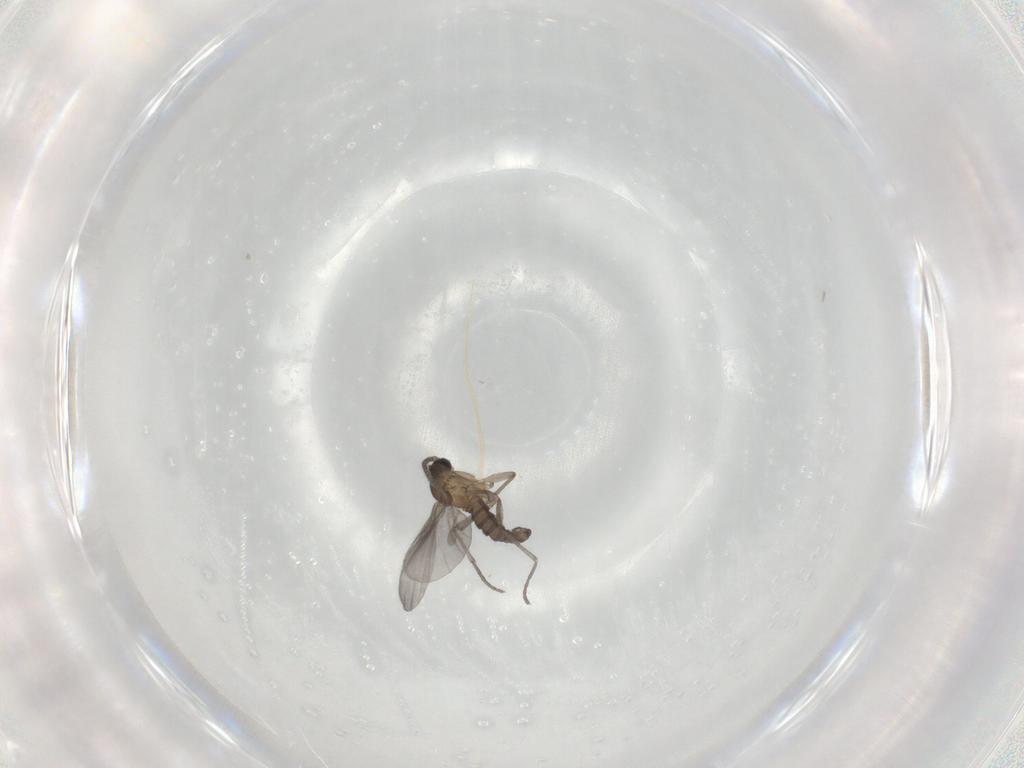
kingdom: Animalia
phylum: Arthropoda
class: Insecta
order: Diptera
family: Sciaridae
